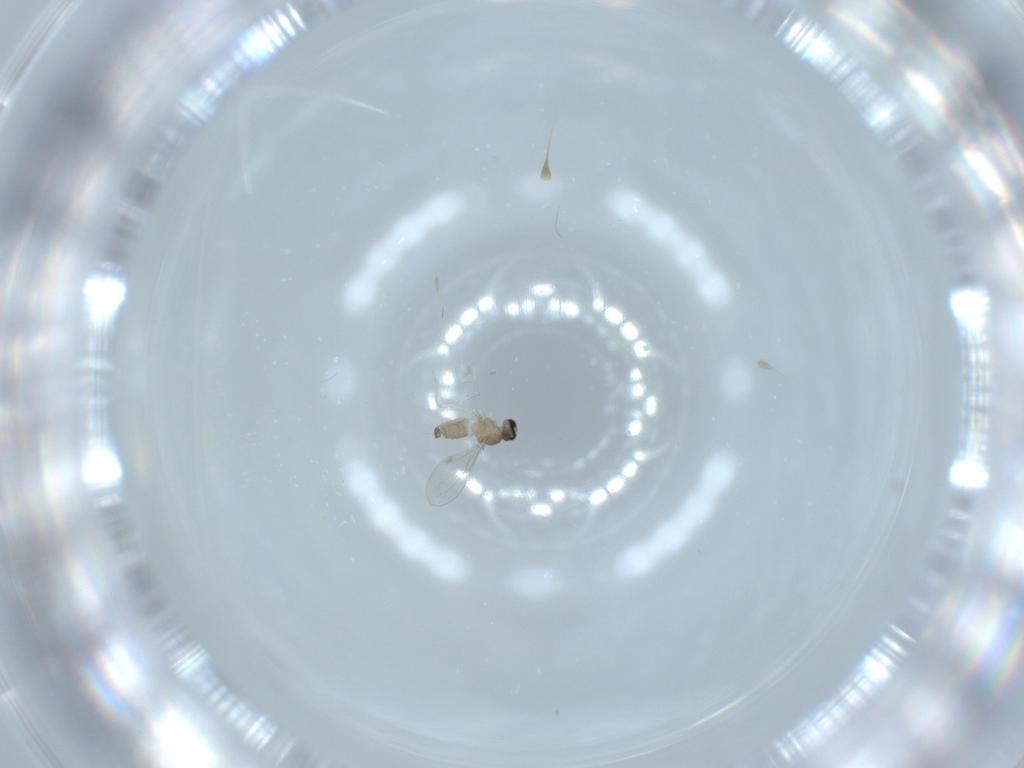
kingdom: Animalia
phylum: Arthropoda
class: Insecta
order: Diptera
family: Cecidomyiidae
